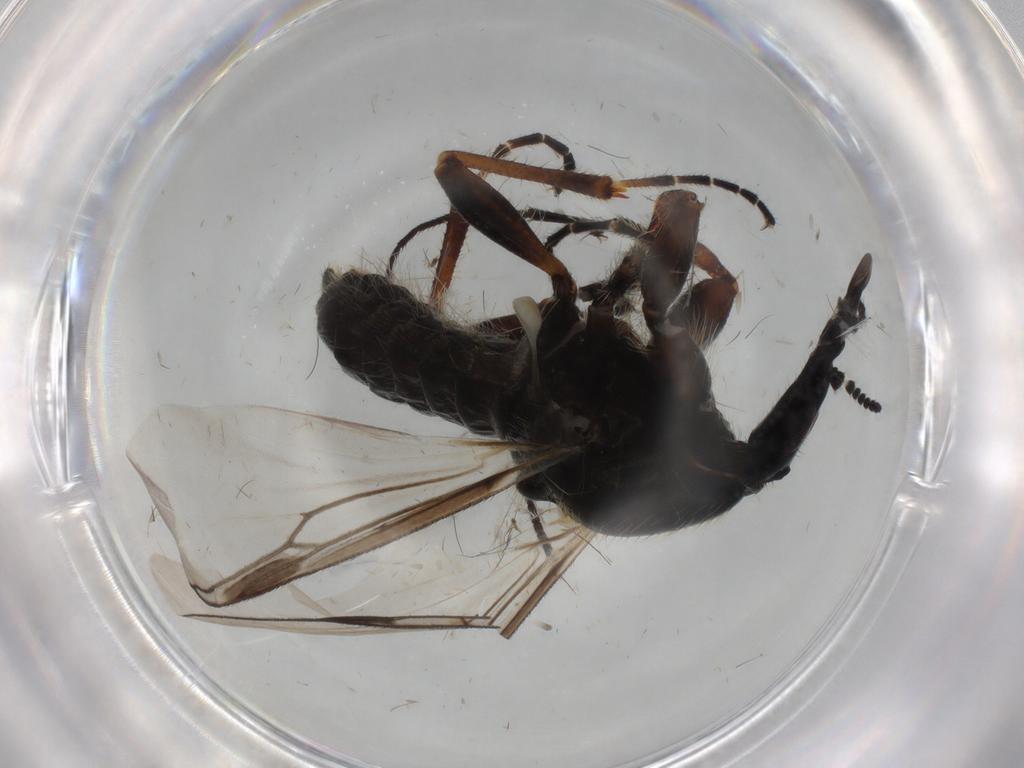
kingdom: Animalia
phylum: Arthropoda
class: Insecta
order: Diptera
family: Bibionidae
